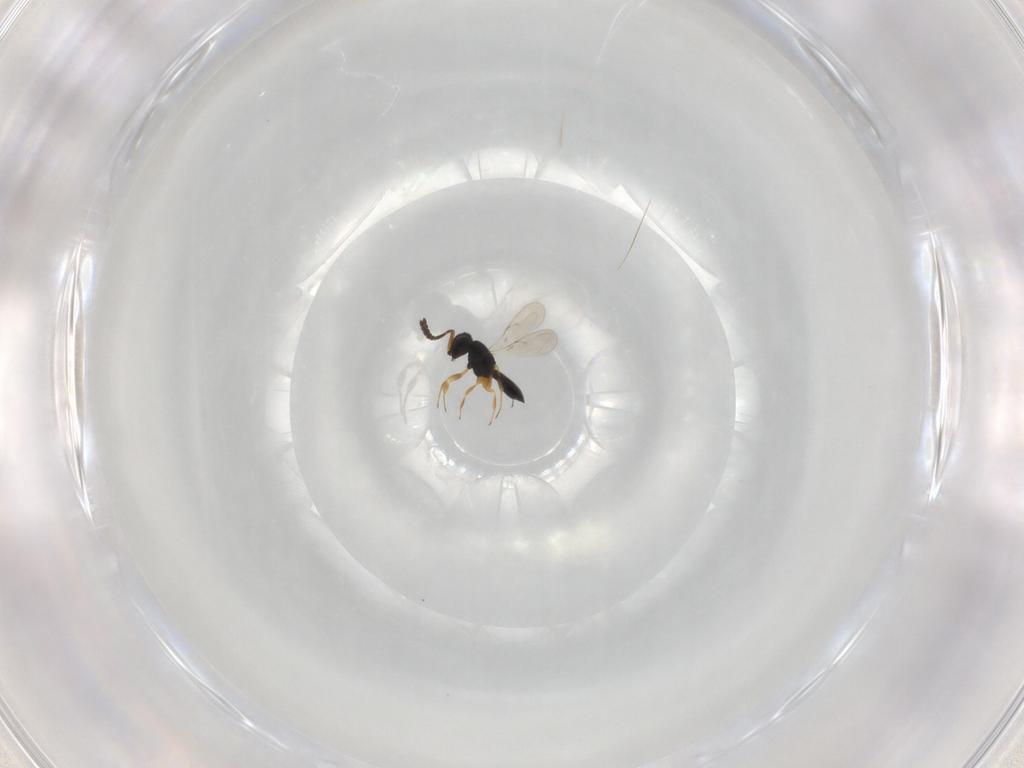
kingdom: Animalia
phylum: Arthropoda
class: Insecta
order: Hymenoptera
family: Scelionidae
